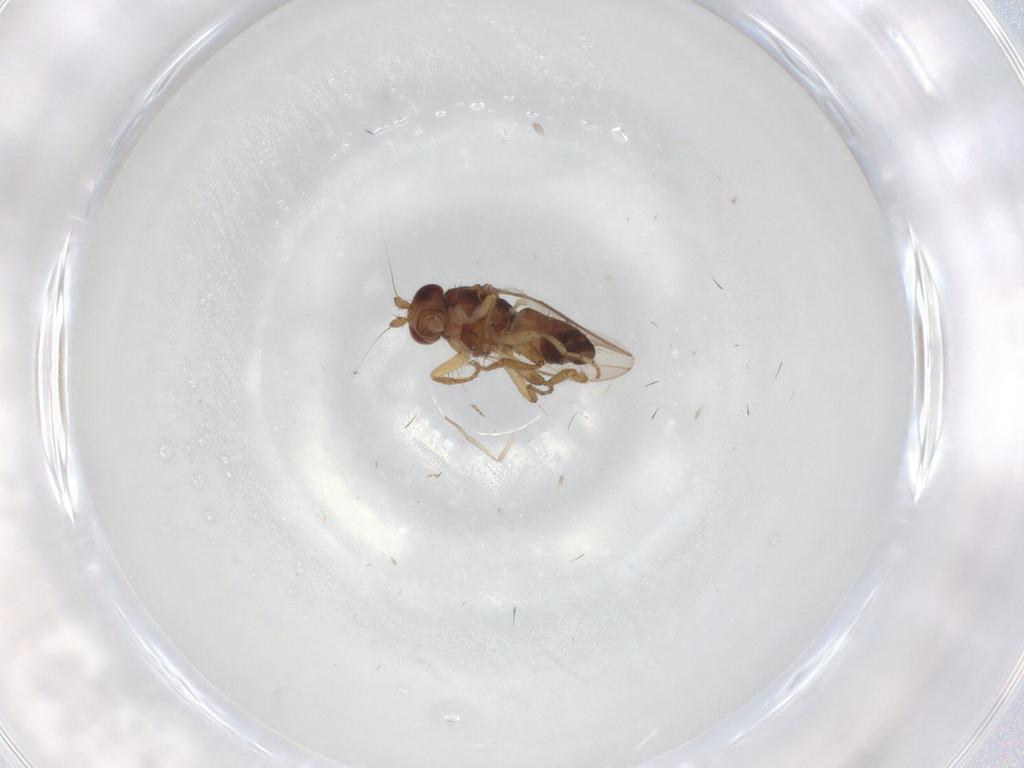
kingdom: Animalia
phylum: Arthropoda
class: Insecta
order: Diptera
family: Sphaeroceridae
